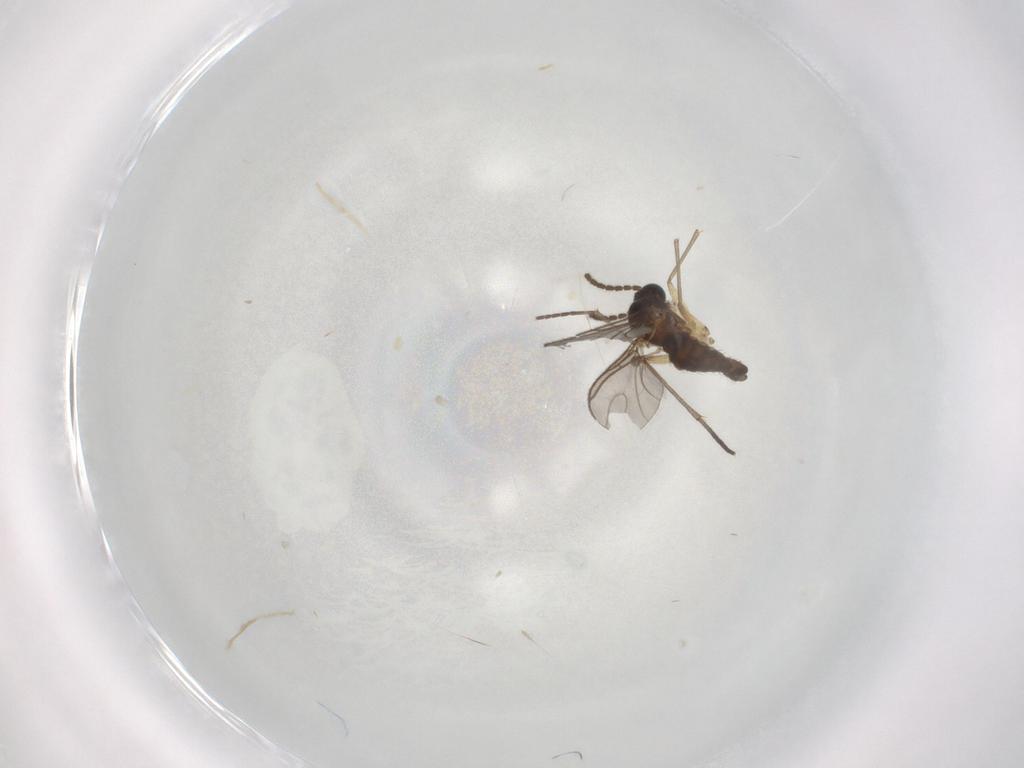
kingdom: Animalia
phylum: Arthropoda
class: Insecta
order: Diptera
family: Sciaridae
